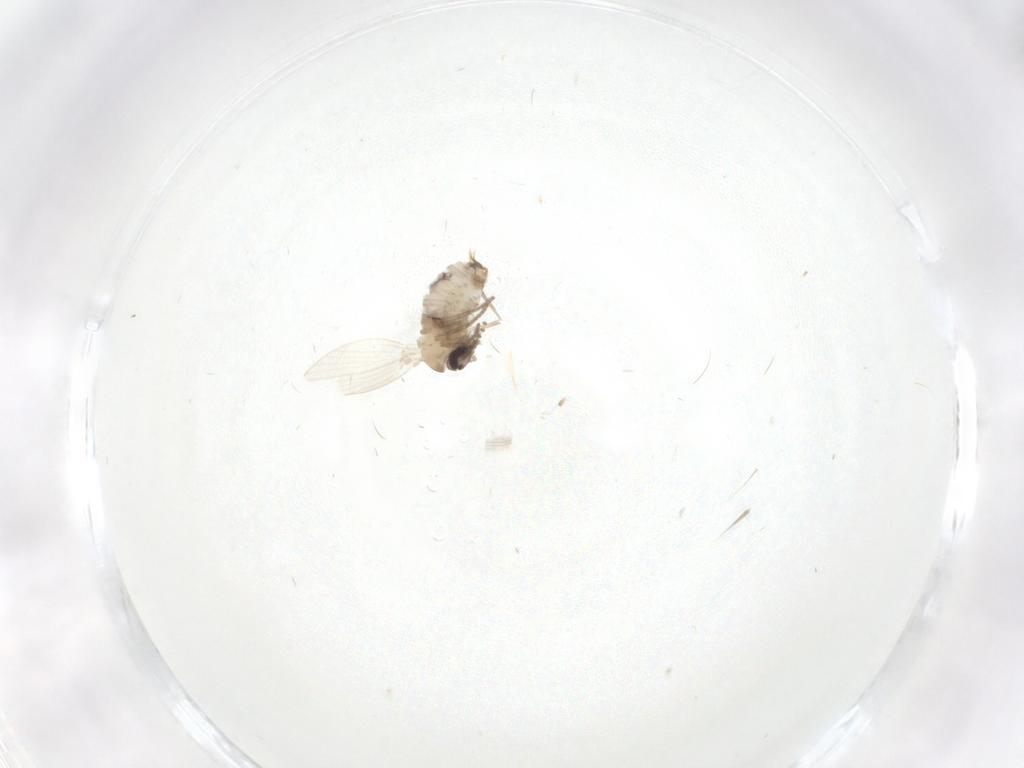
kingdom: Animalia
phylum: Arthropoda
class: Insecta
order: Diptera
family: Psychodidae
